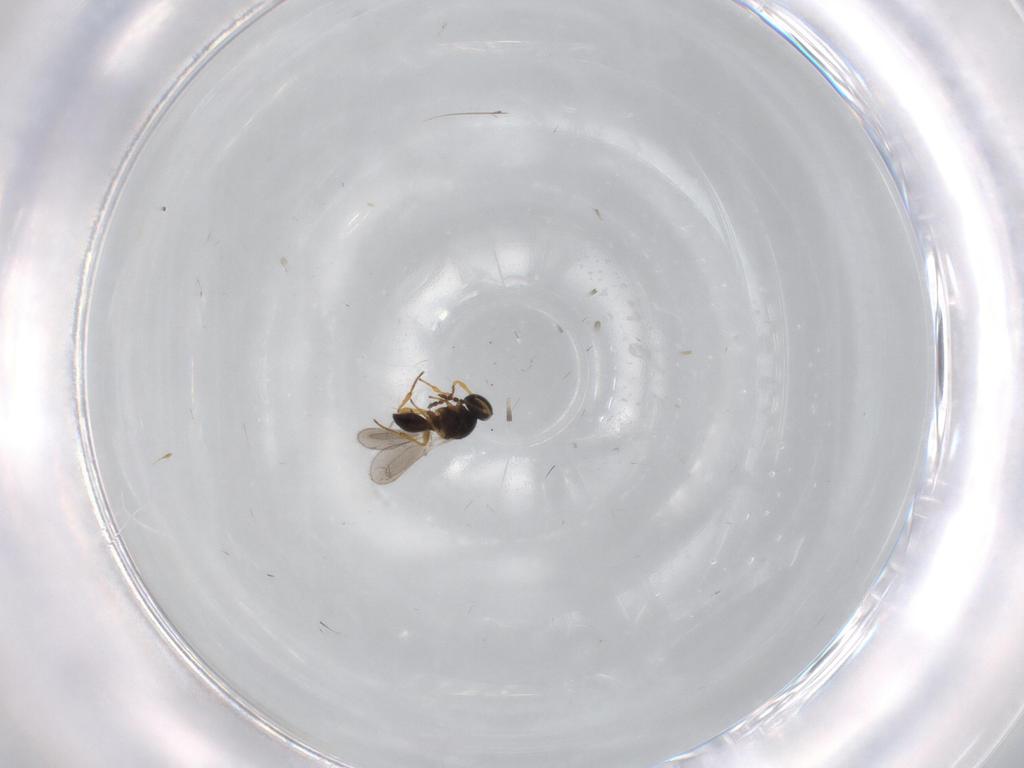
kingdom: Animalia
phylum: Arthropoda
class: Insecta
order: Hymenoptera
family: Platygastridae
